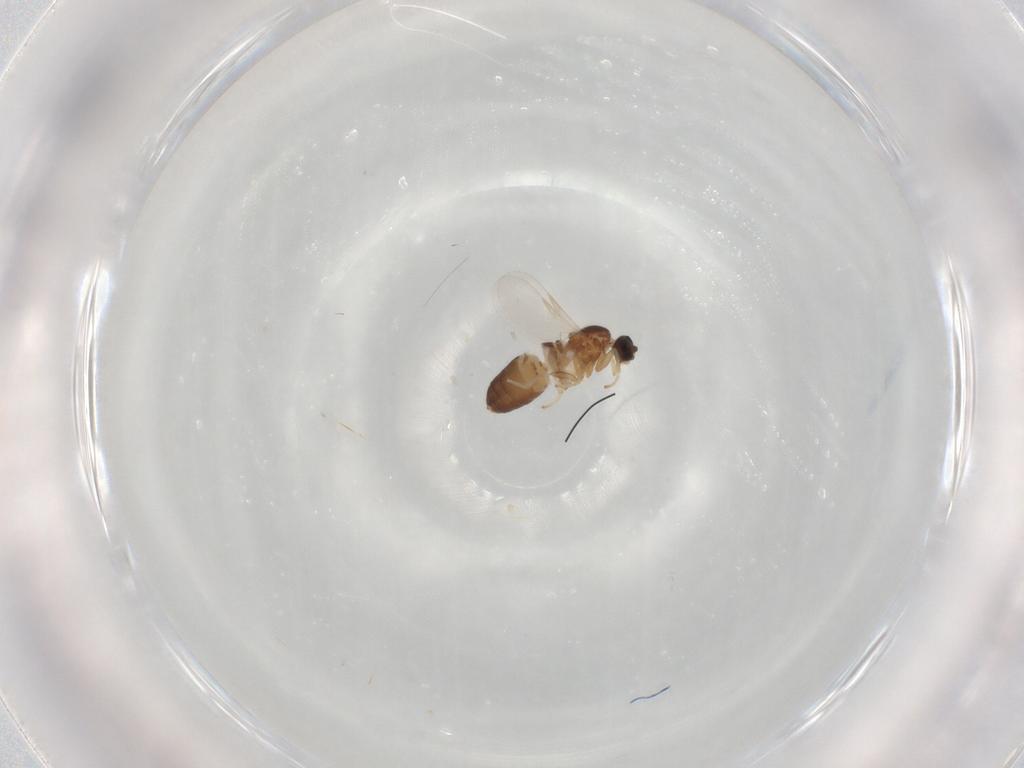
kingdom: Animalia
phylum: Arthropoda
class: Insecta
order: Diptera
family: Scatopsidae
